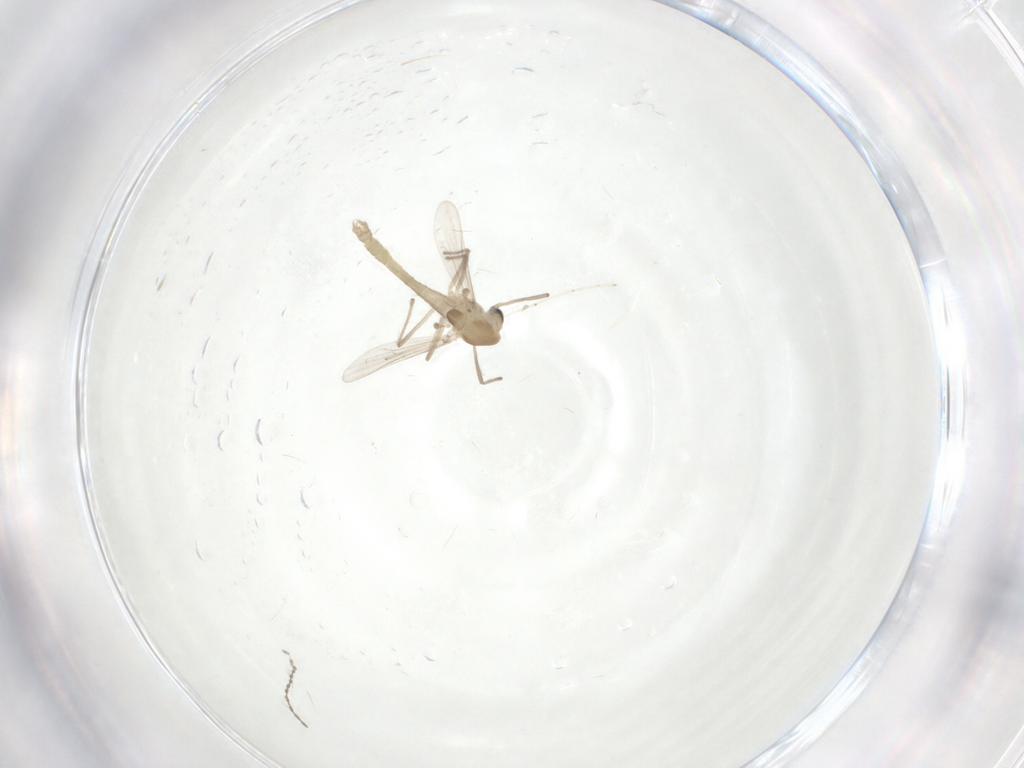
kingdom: Animalia
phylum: Arthropoda
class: Insecta
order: Diptera
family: Chironomidae
